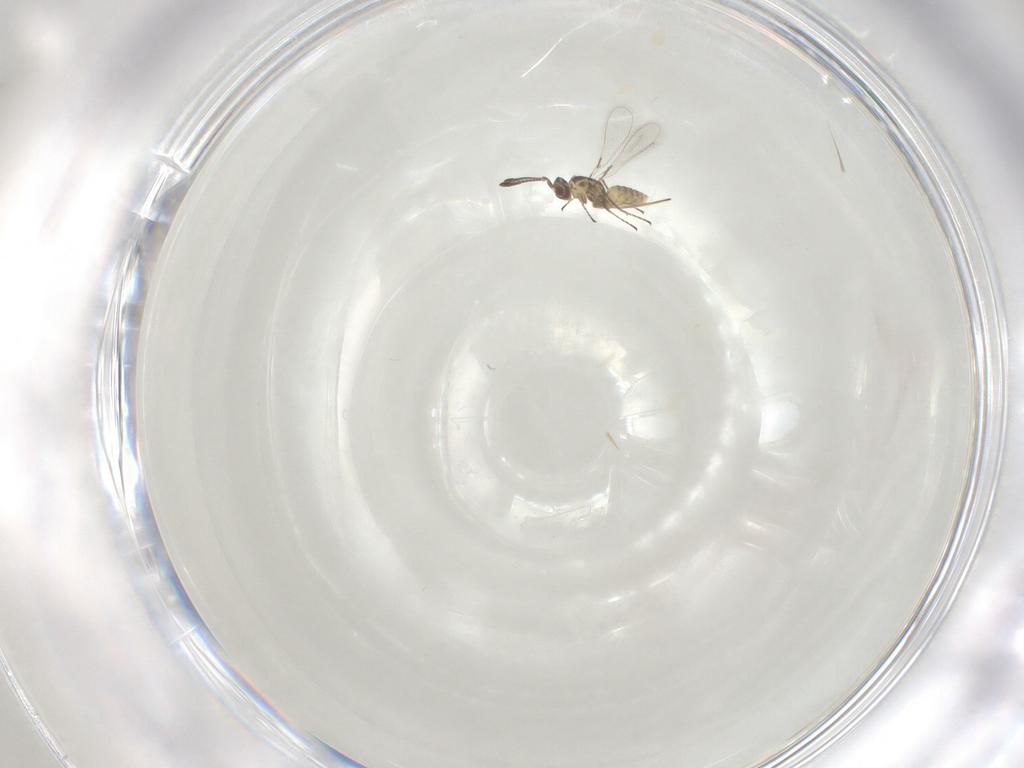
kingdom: Animalia
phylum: Arthropoda
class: Insecta
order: Hymenoptera
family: Mymaridae
